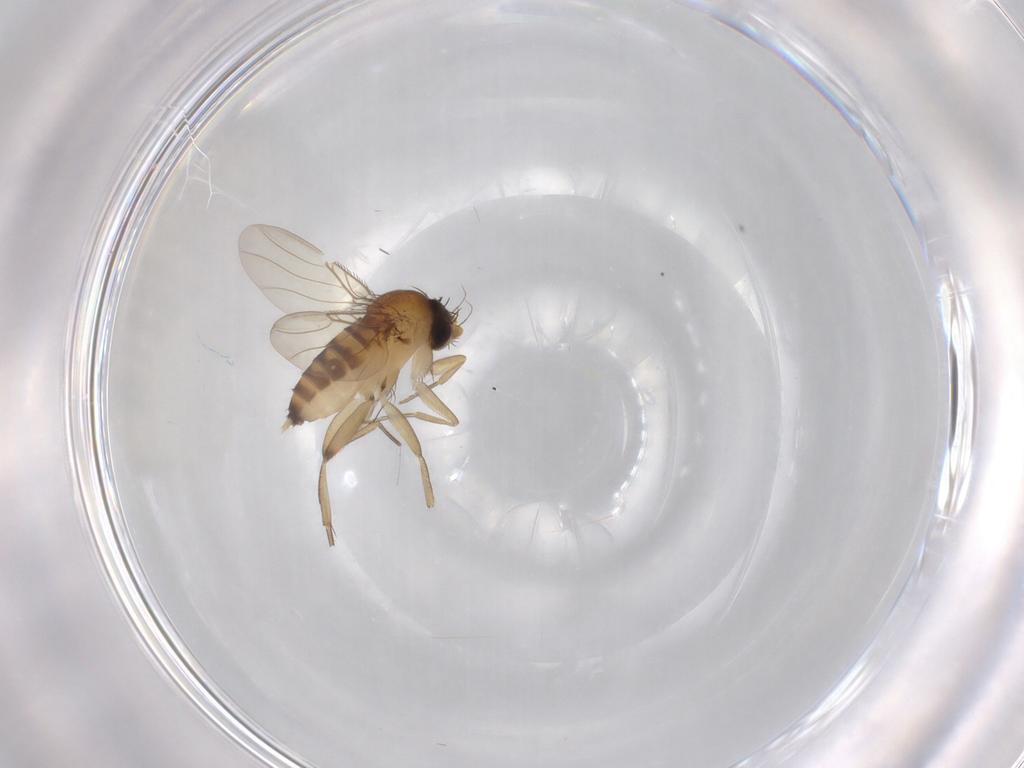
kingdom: Animalia
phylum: Arthropoda
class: Insecta
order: Diptera
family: Phoridae
